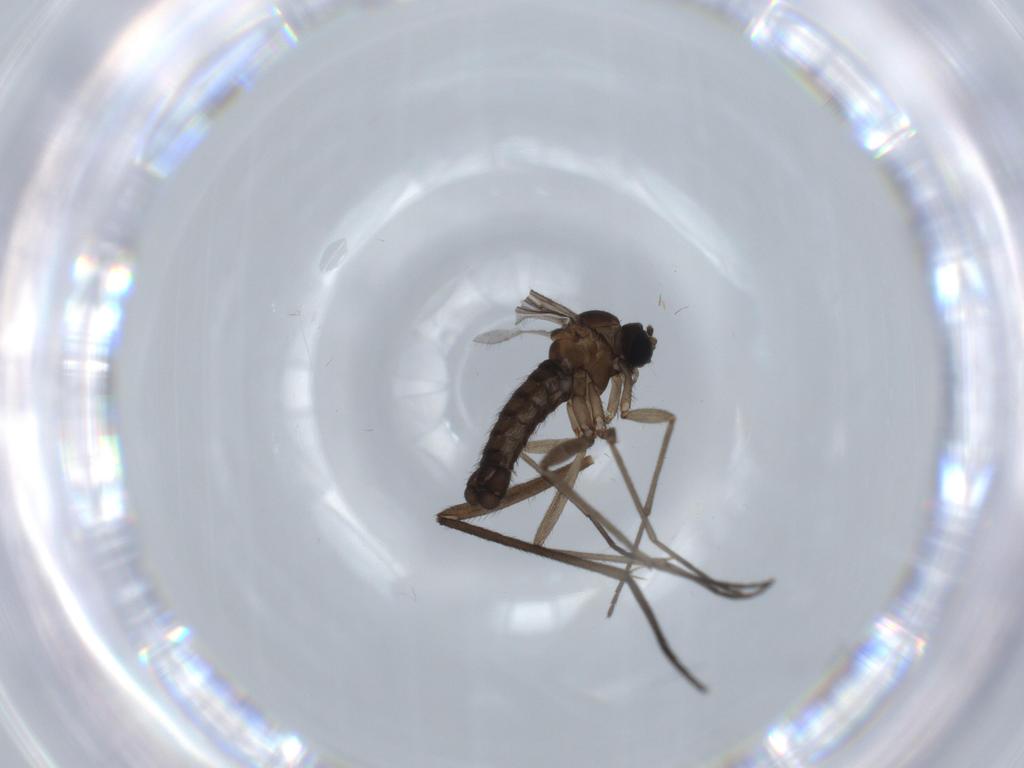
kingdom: Animalia
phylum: Arthropoda
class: Insecta
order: Diptera
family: Sciaridae
